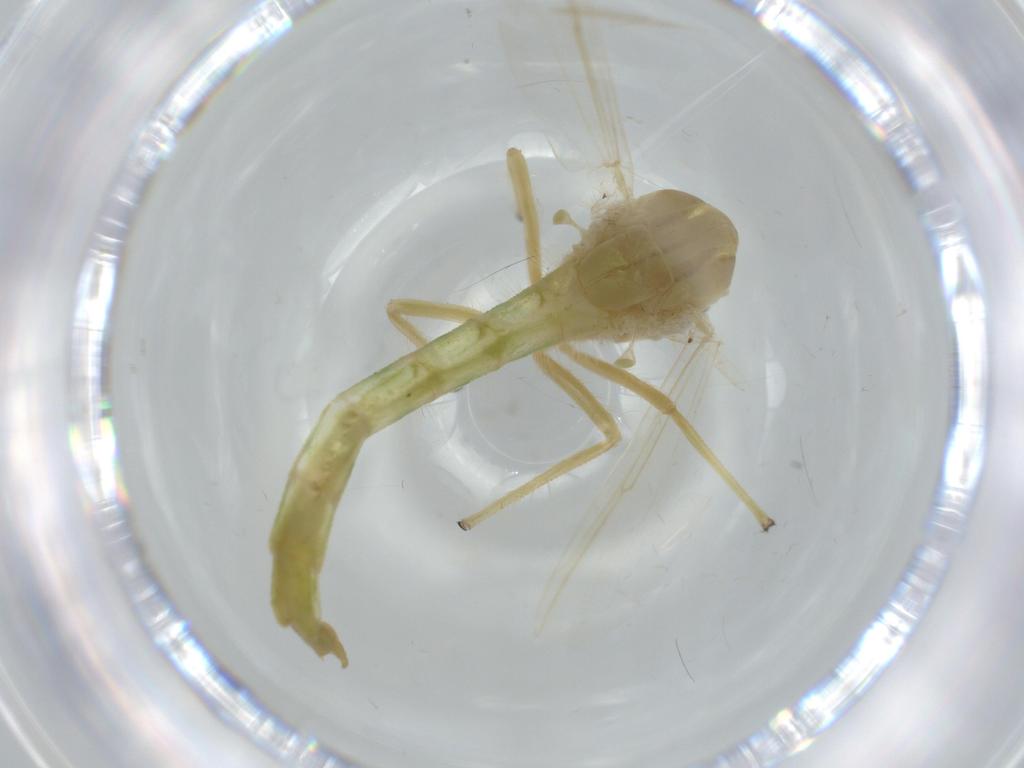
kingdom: Animalia
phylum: Arthropoda
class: Insecta
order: Diptera
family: Chironomidae
